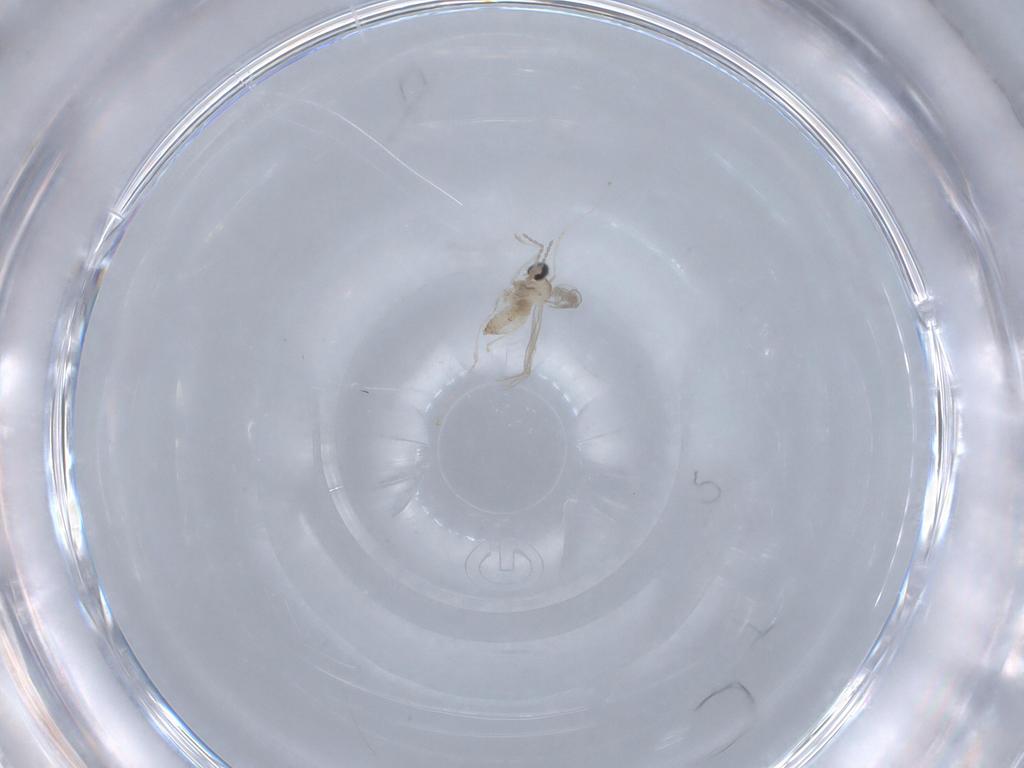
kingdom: Animalia
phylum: Arthropoda
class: Insecta
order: Diptera
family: Cecidomyiidae
